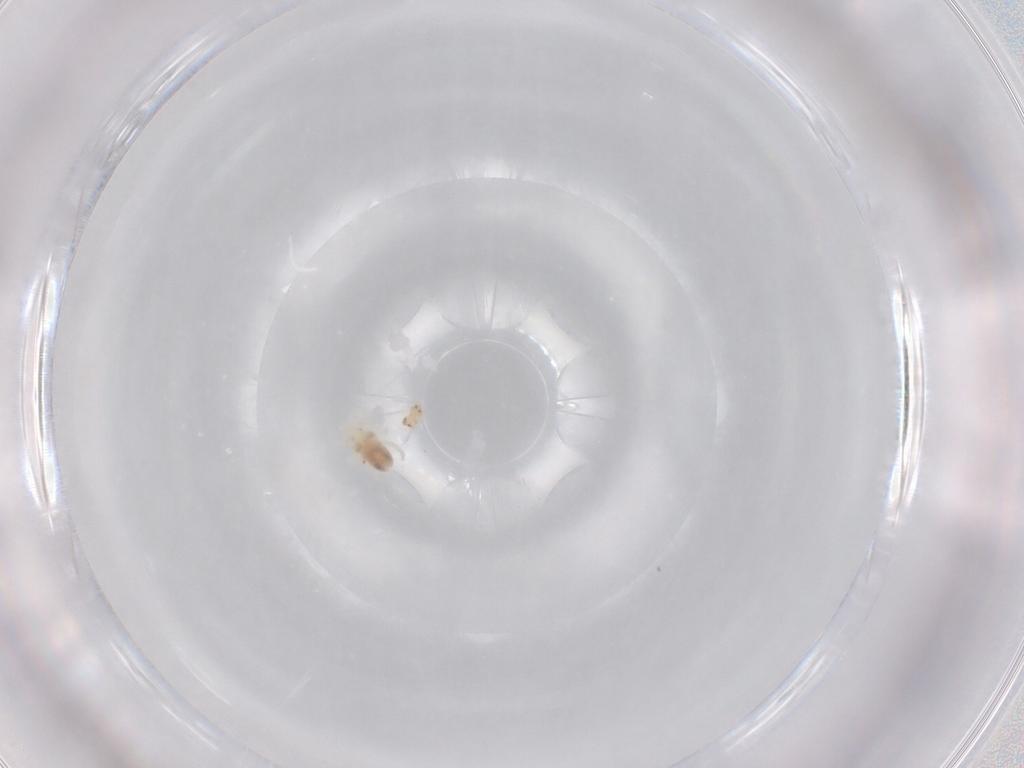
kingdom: Animalia
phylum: Arthropoda
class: Arachnida
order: Trombidiformes
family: Rhagidiidae
